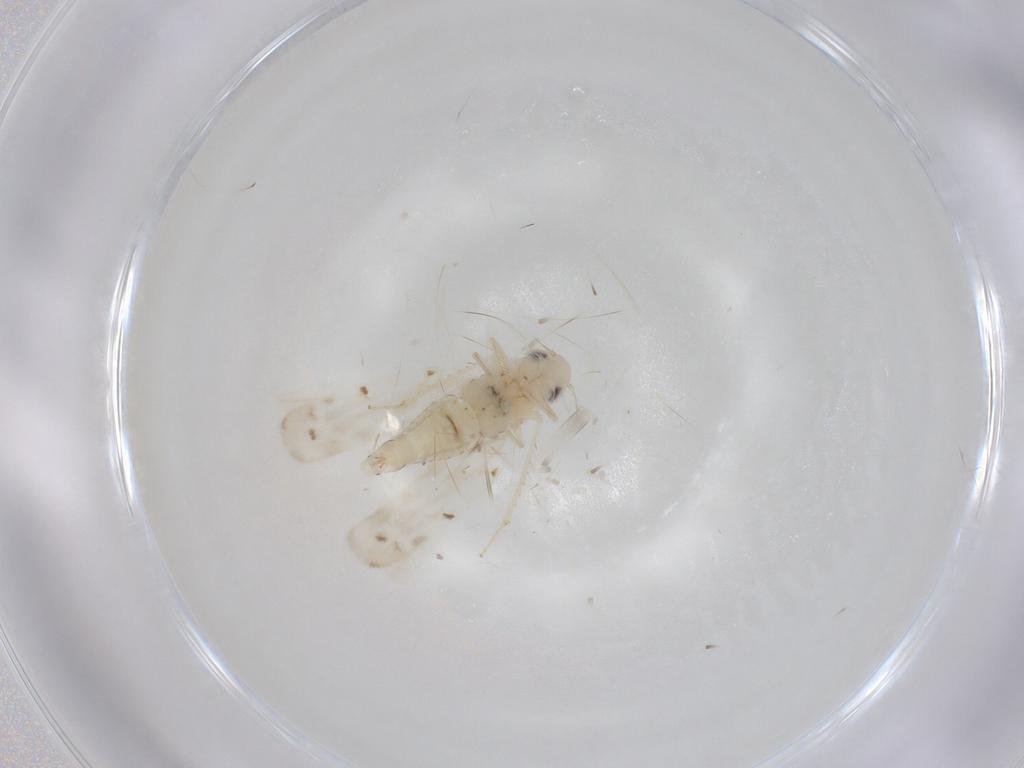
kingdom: Animalia
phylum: Arthropoda
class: Insecta
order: Hemiptera
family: Cicadellidae
